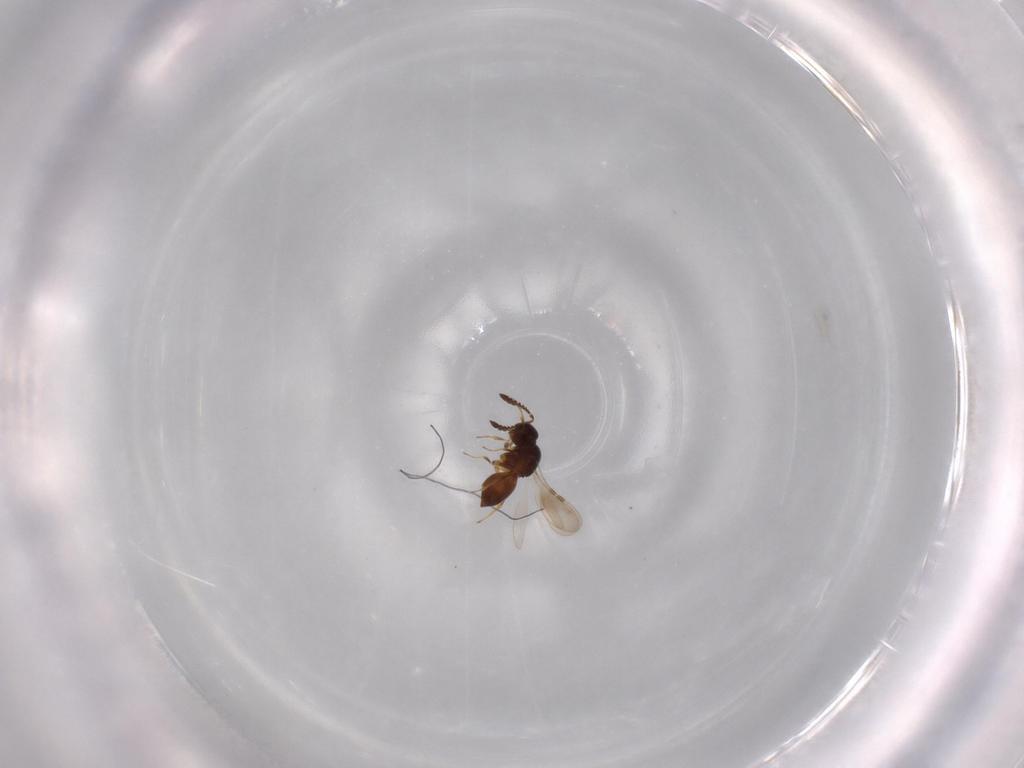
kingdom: Animalia
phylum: Arthropoda
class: Insecta
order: Hymenoptera
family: Ceraphronidae
